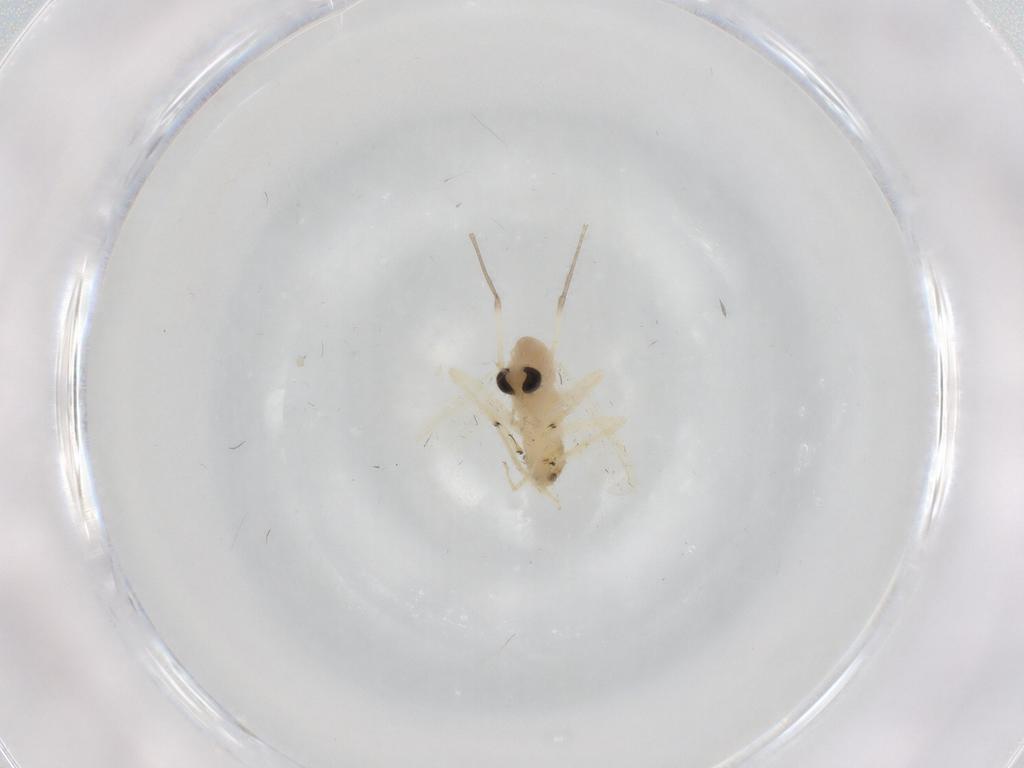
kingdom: Animalia
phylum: Arthropoda
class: Insecta
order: Diptera
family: Chironomidae
